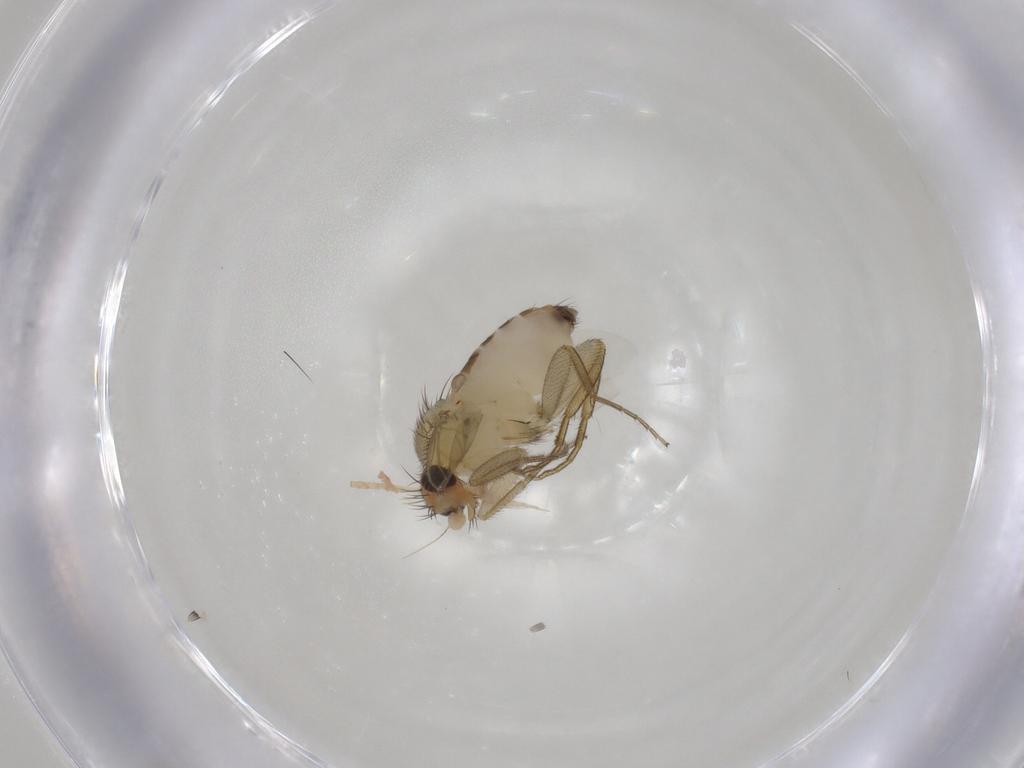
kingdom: Animalia
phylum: Arthropoda
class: Insecta
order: Diptera
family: Phoridae
